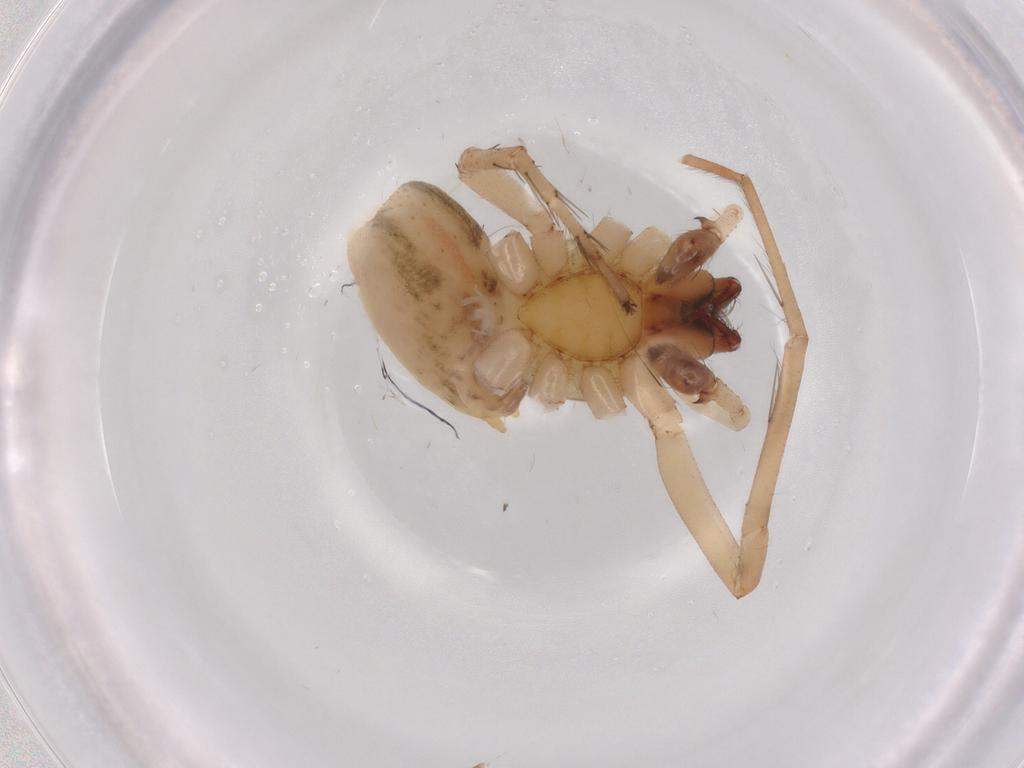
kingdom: Animalia
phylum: Arthropoda
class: Arachnida
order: Araneae
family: Anyphaenidae
